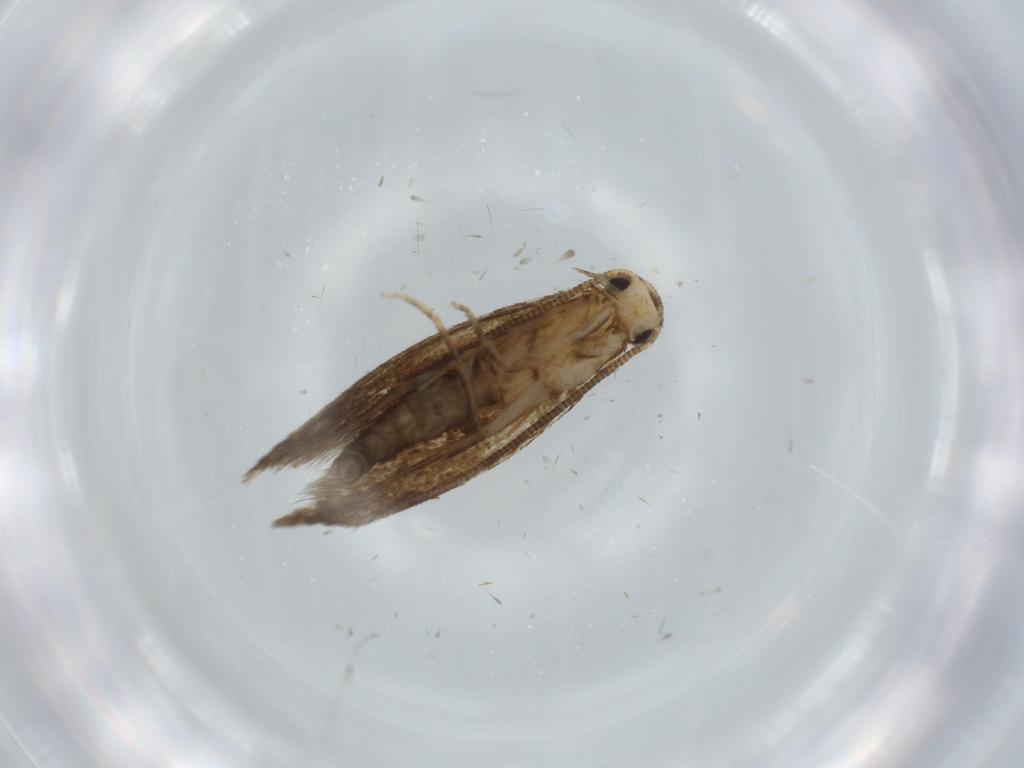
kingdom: Animalia
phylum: Arthropoda
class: Insecta
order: Lepidoptera
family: Tineidae
